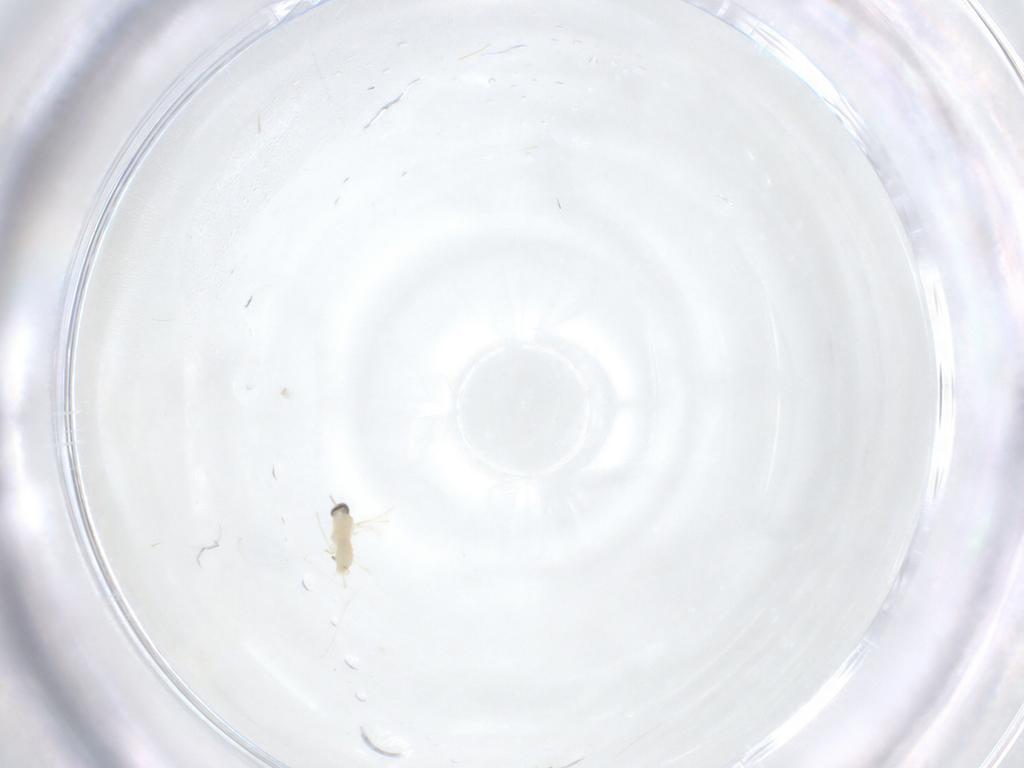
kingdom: Animalia
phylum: Arthropoda
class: Insecta
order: Diptera
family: Cecidomyiidae
